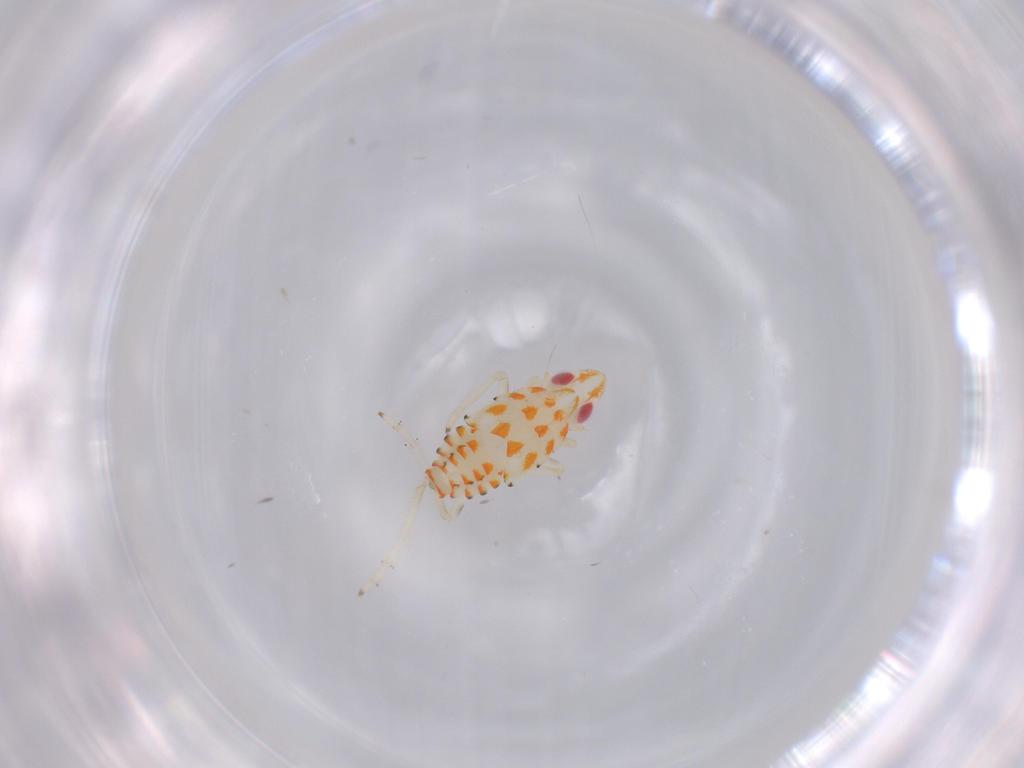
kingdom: Animalia
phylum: Arthropoda
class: Insecta
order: Hemiptera
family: Tropiduchidae
